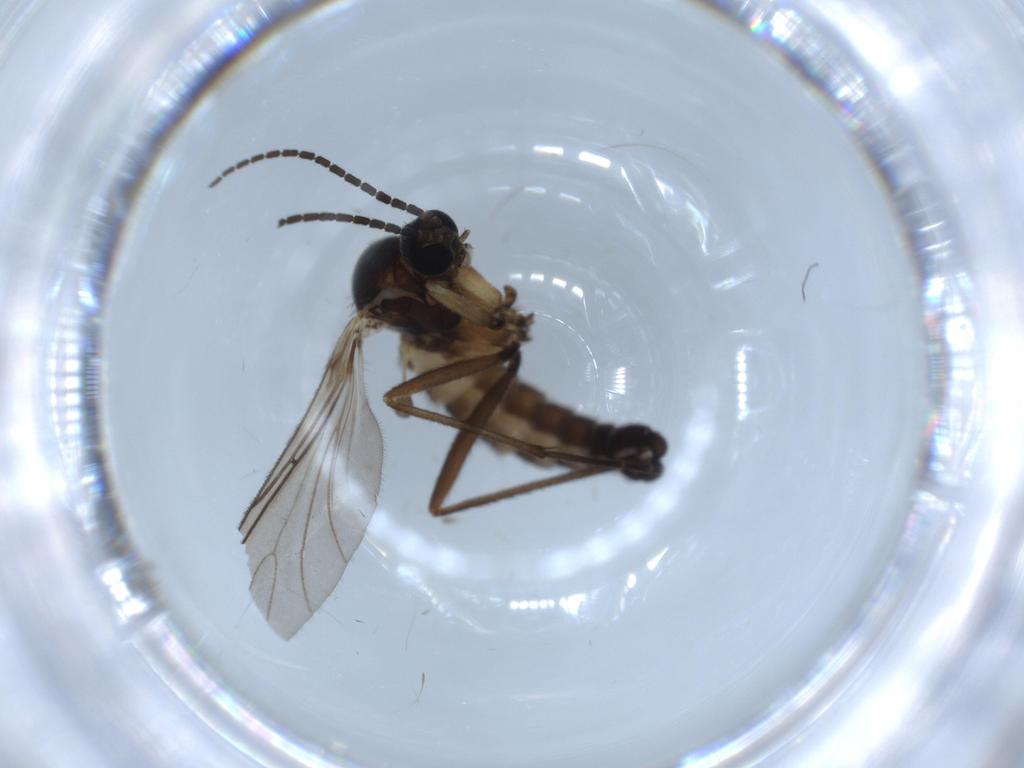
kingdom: Animalia
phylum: Arthropoda
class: Insecta
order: Diptera
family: Sciaridae
